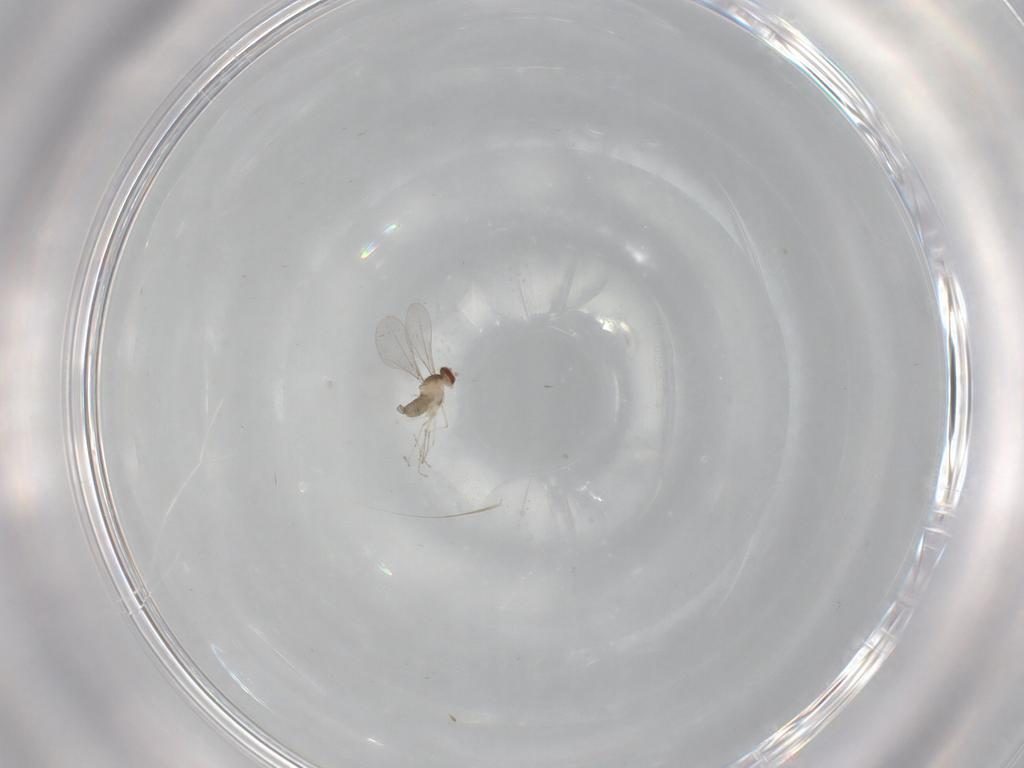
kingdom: Animalia
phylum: Arthropoda
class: Insecta
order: Diptera
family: Cecidomyiidae
